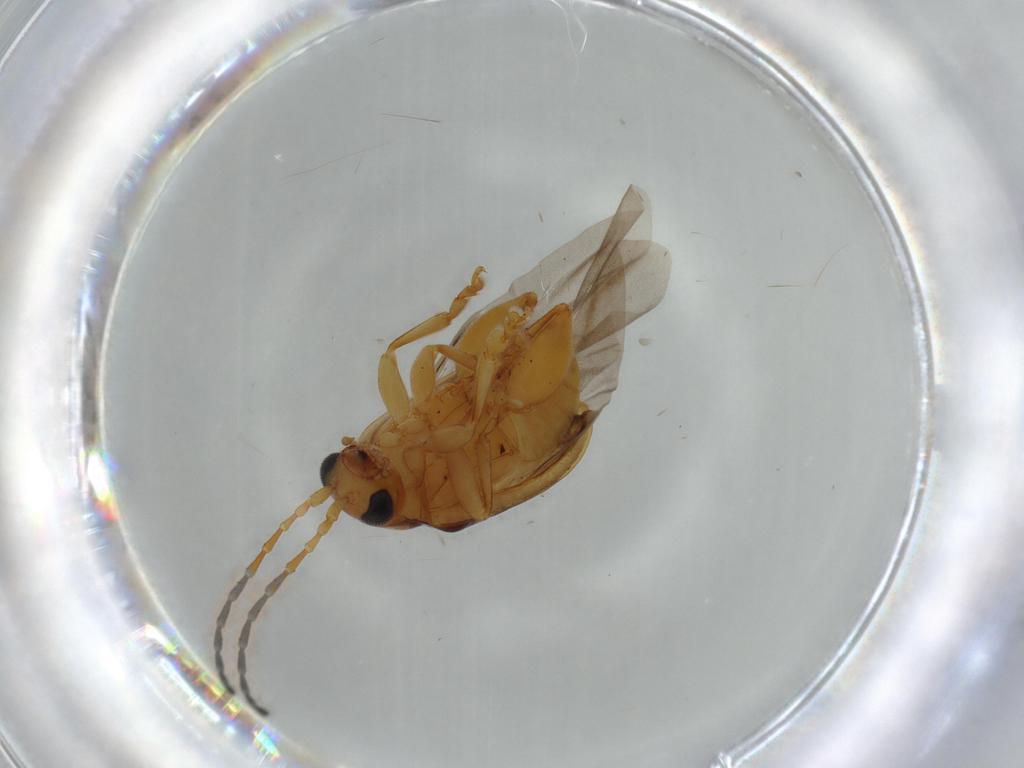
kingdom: Animalia
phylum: Arthropoda
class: Insecta
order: Coleoptera
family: Chrysomelidae
